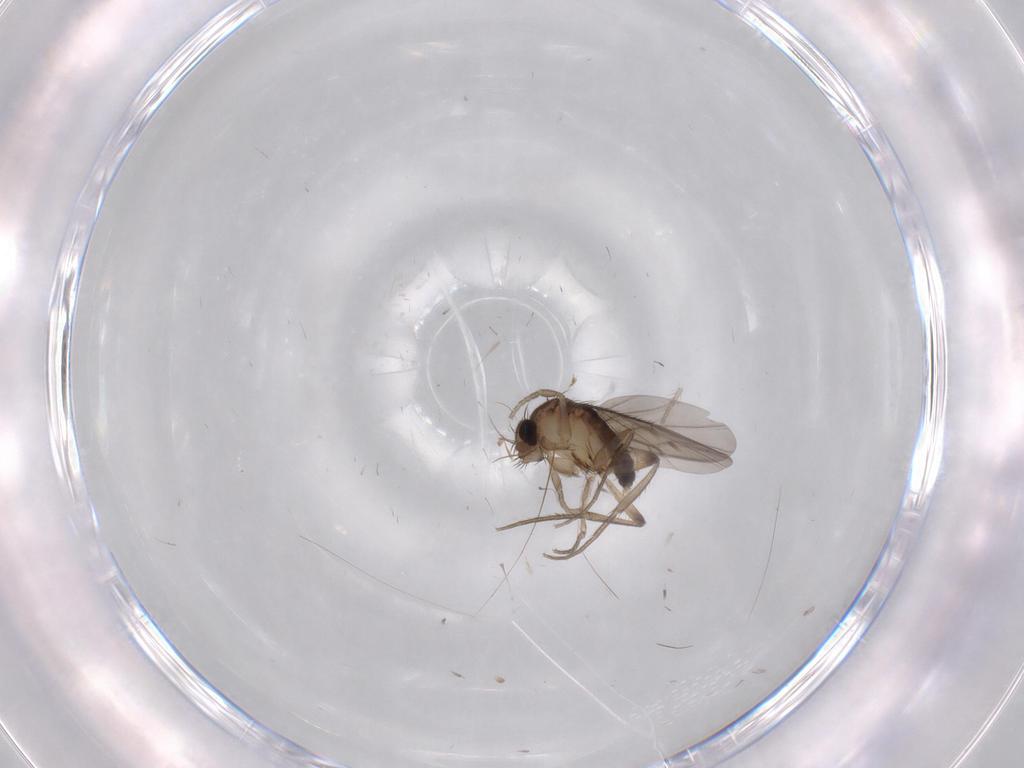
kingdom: Animalia
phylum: Arthropoda
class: Insecta
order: Diptera
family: Phoridae
